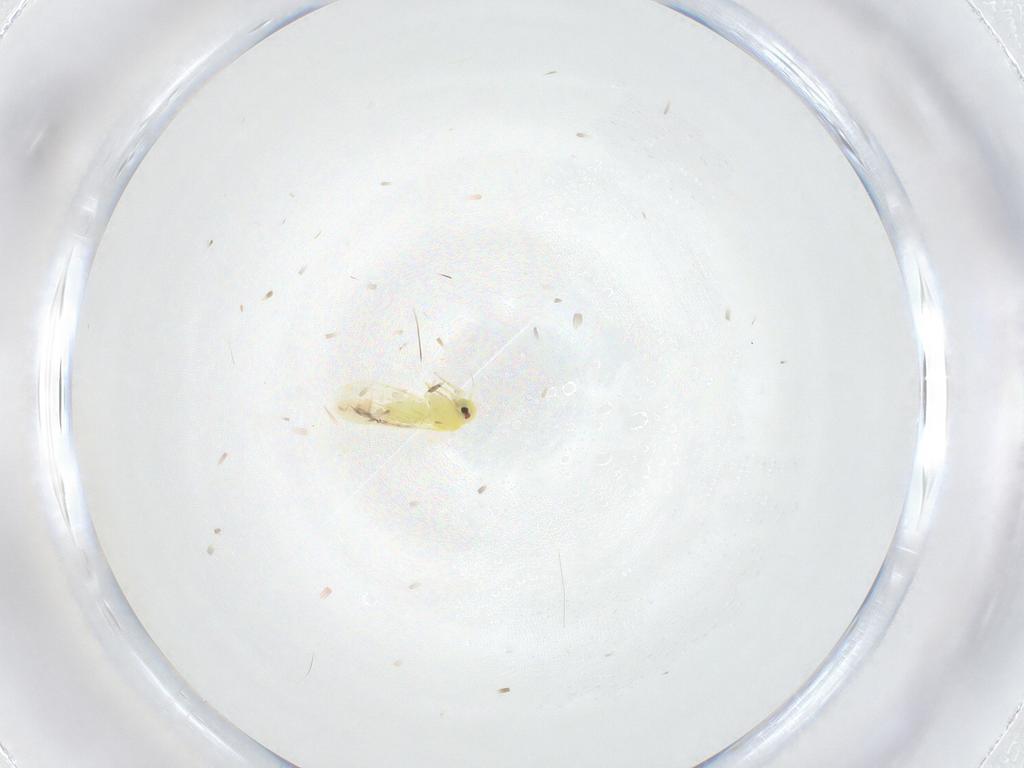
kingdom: Animalia
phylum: Arthropoda
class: Insecta
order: Hemiptera
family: Miridae
